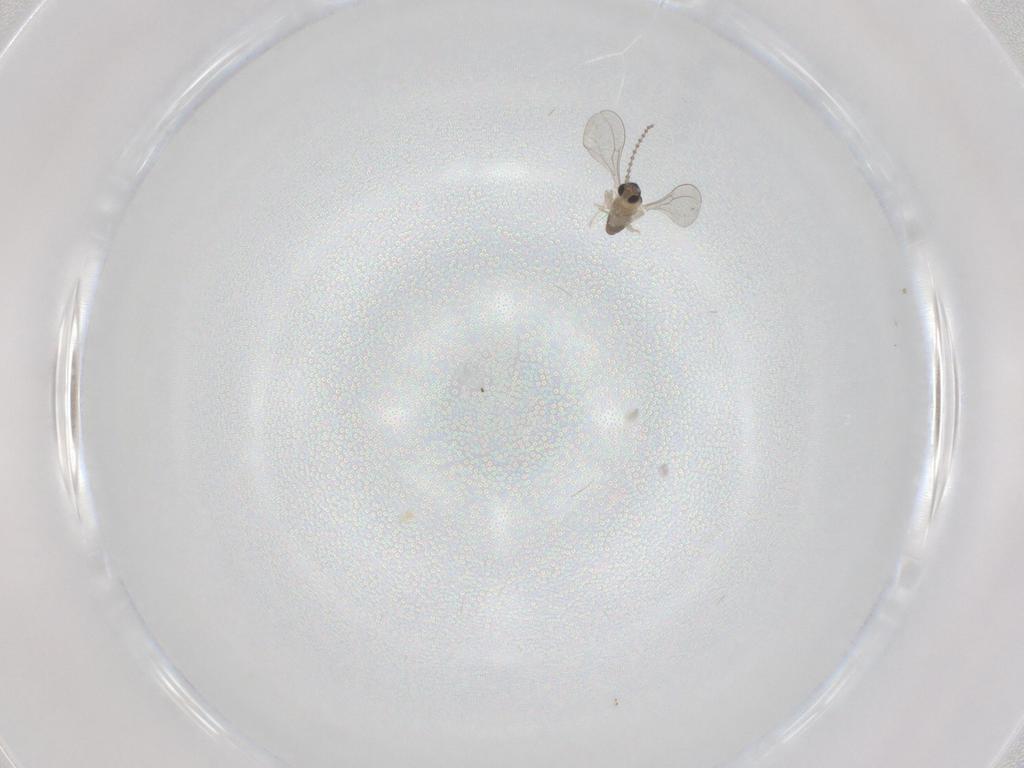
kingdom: Animalia
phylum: Arthropoda
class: Insecta
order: Diptera
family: Cecidomyiidae
